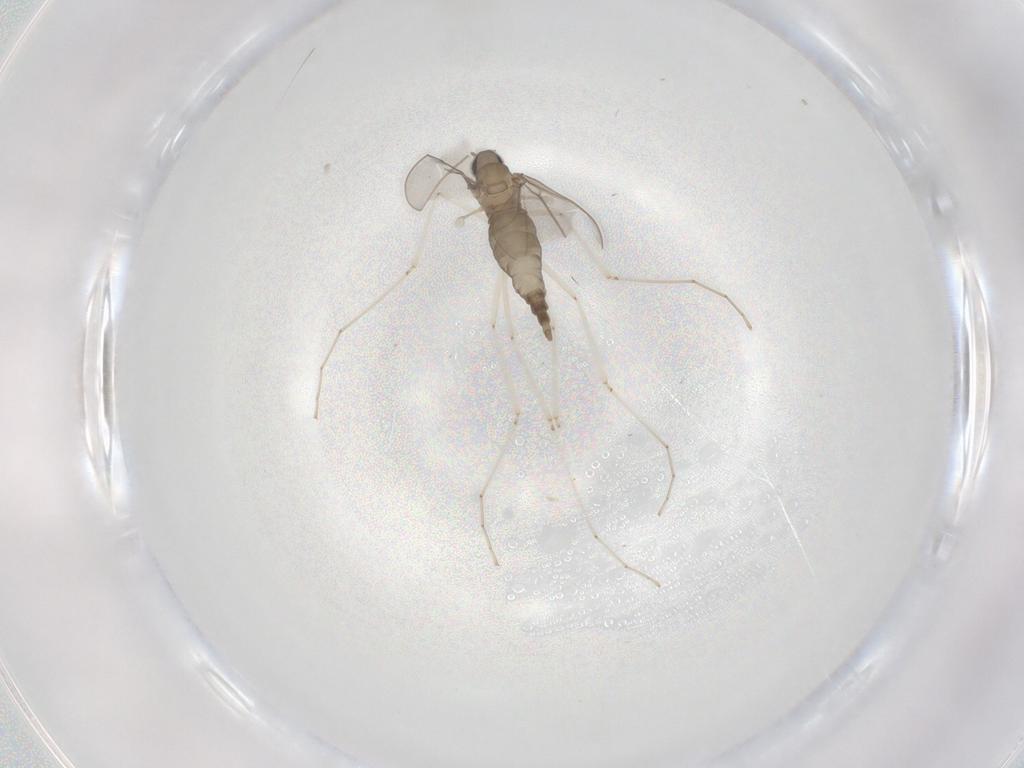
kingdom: Animalia
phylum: Arthropoda
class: Insecta
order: Diptera
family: Cecidomyiidae
